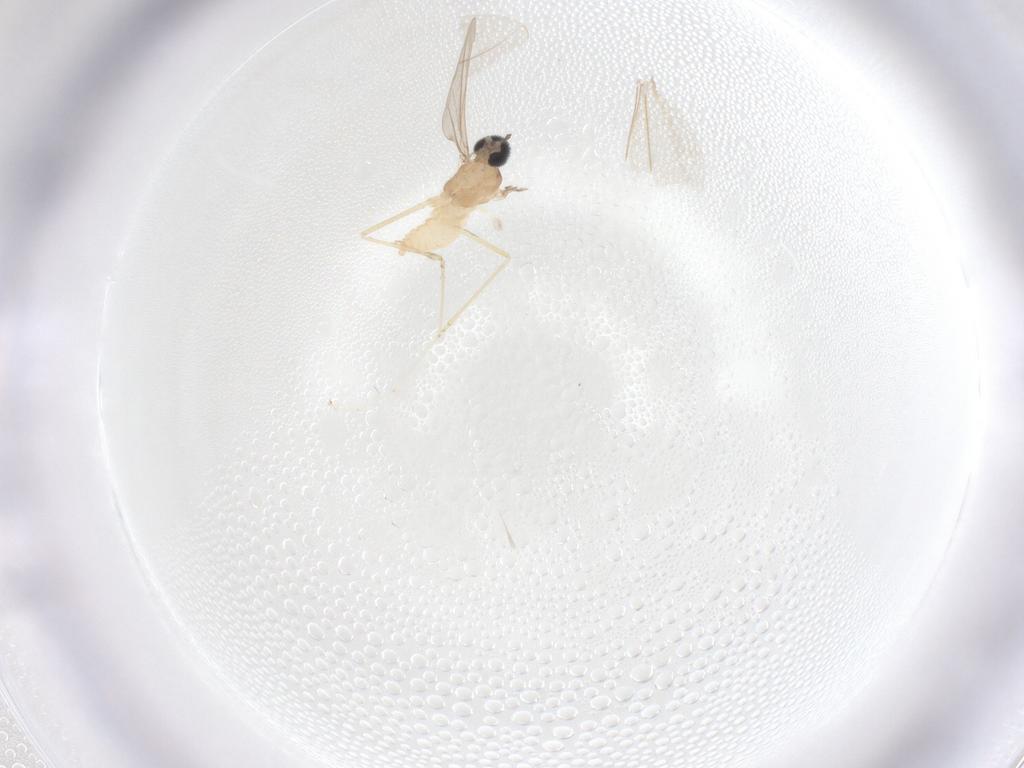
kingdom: Animalia
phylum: Arthropoda
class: Insecta
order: Diptera
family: Cecidomyiidae
